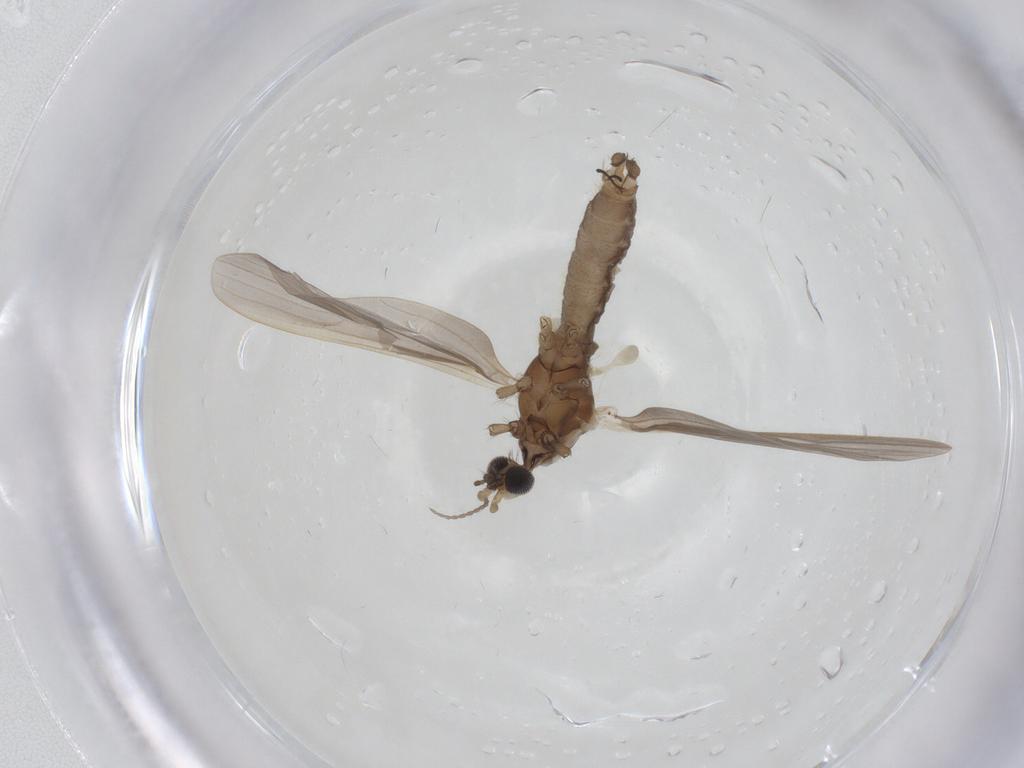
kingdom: Animalia
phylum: Arthropoda
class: Insecta
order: Diptera
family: Limoniidae
